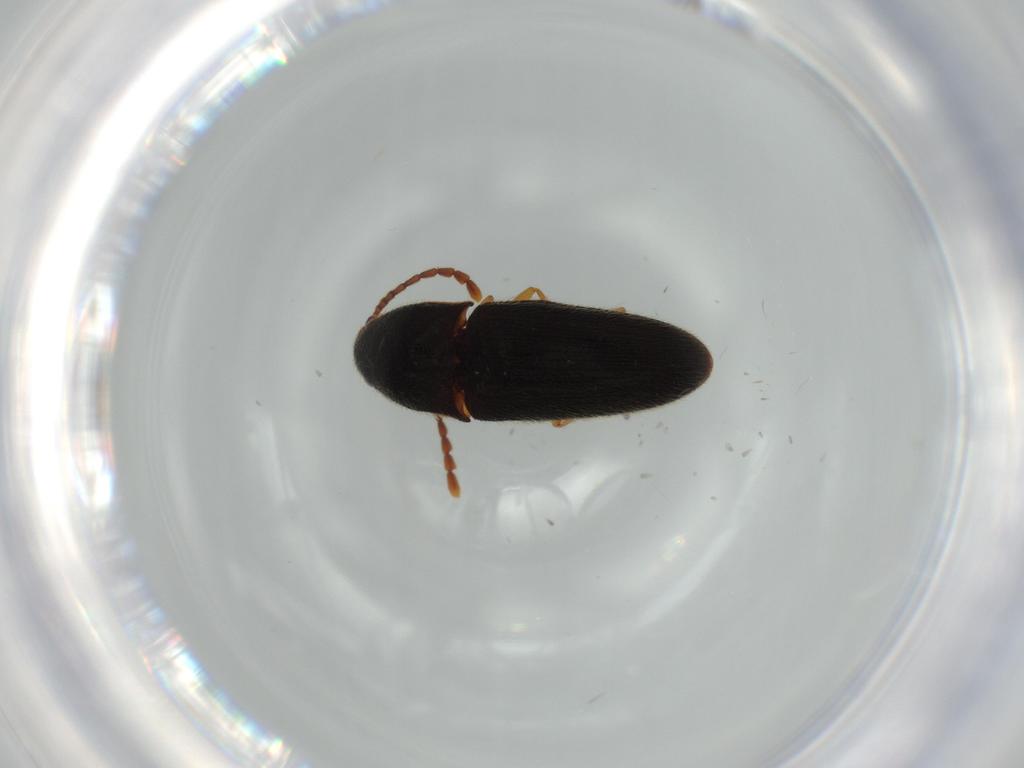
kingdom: Animalia
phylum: Arthropoda
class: Insecta
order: Coleoptera
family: Elateridae
